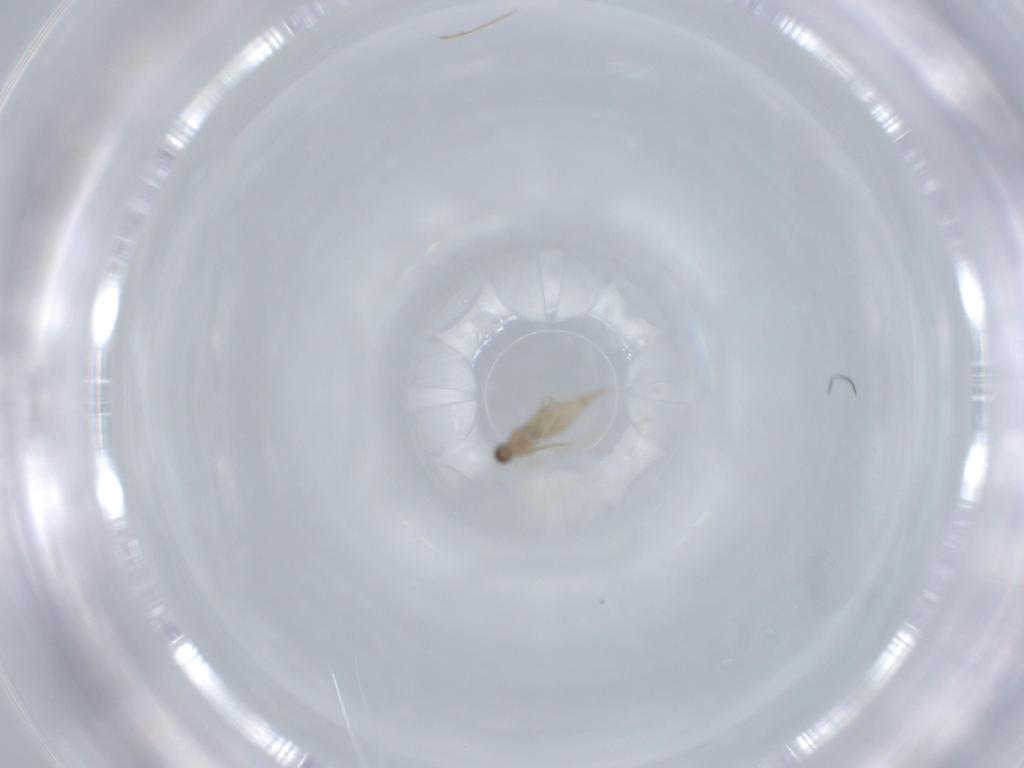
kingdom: Animalia
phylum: Arthropoda
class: Insecta
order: Diptera
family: Cecidomyiidae
